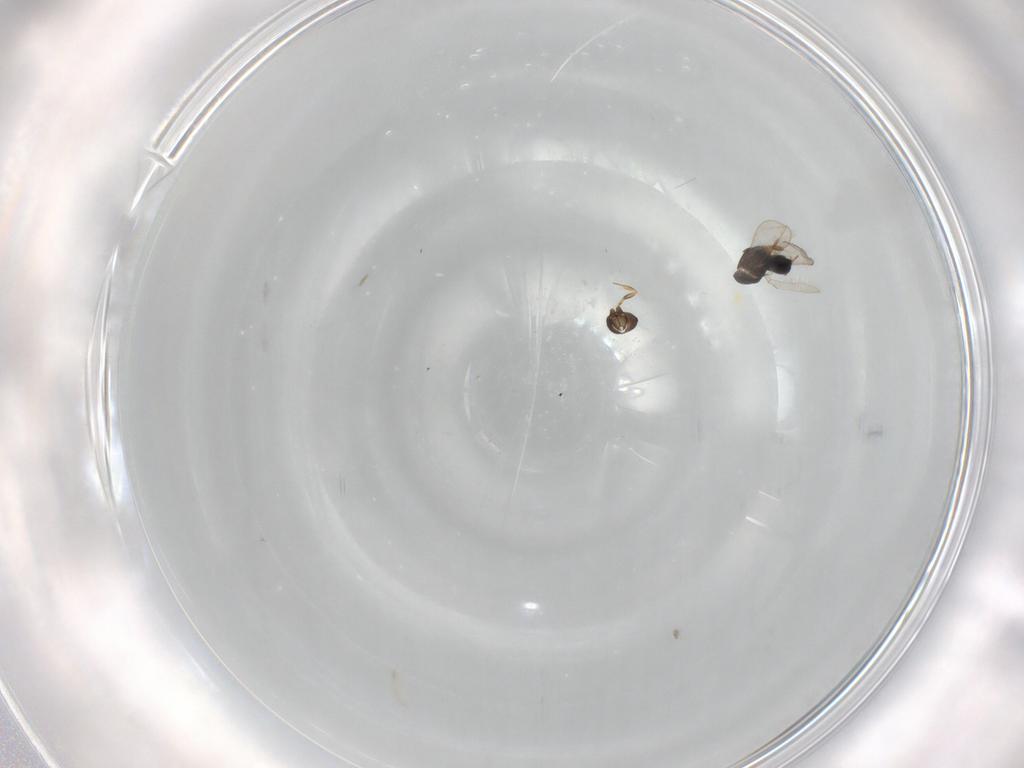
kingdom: Animalia
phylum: Arthropoda
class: Insecta
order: Hymenoptera
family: Scelionidae
